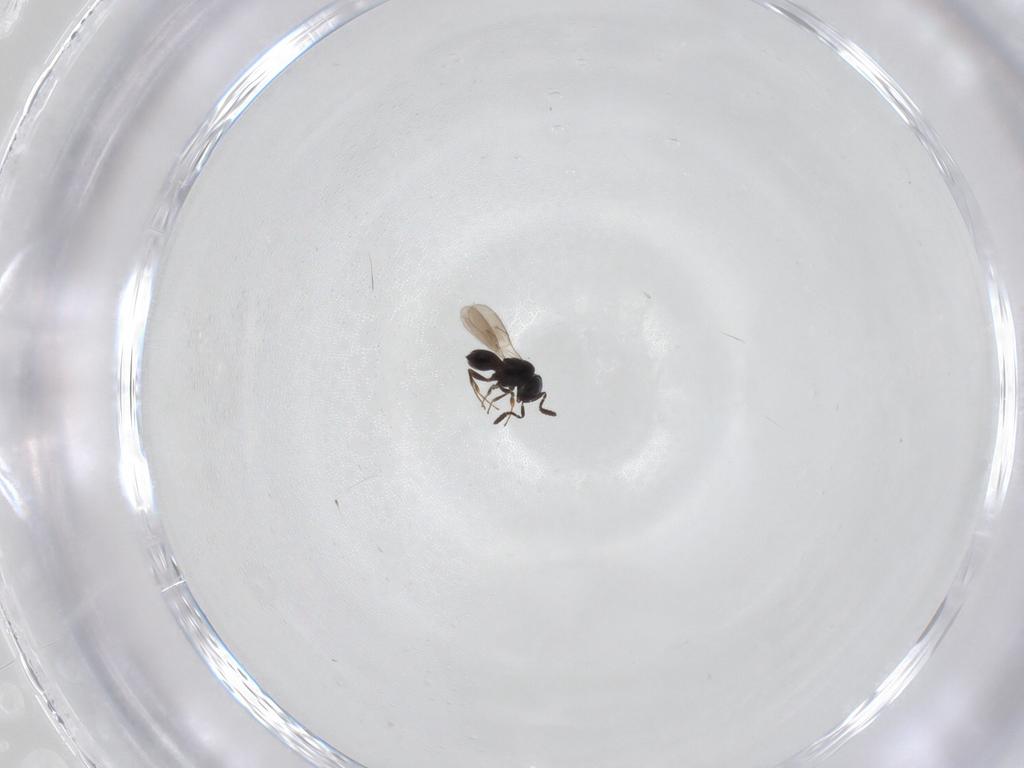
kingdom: Animalia
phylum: Arthropoda
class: Insecta
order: Hymenoptera
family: Scelionidae
